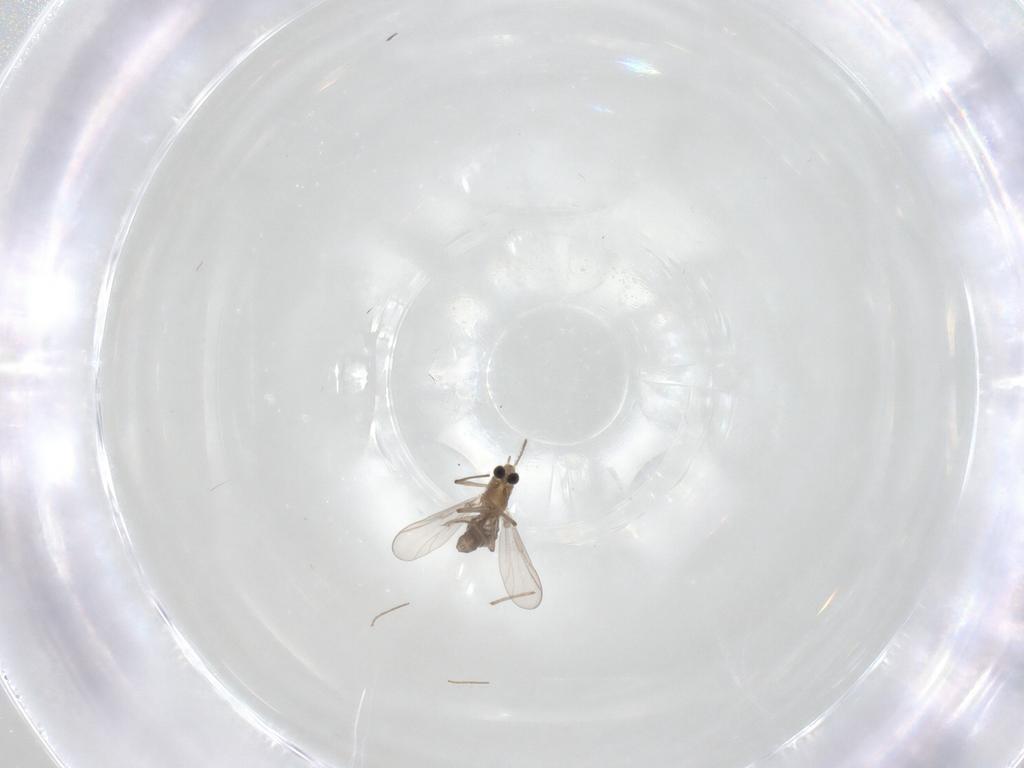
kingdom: Animalia
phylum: Arthropoda
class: Insecta
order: Diptera
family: Chironomidae
